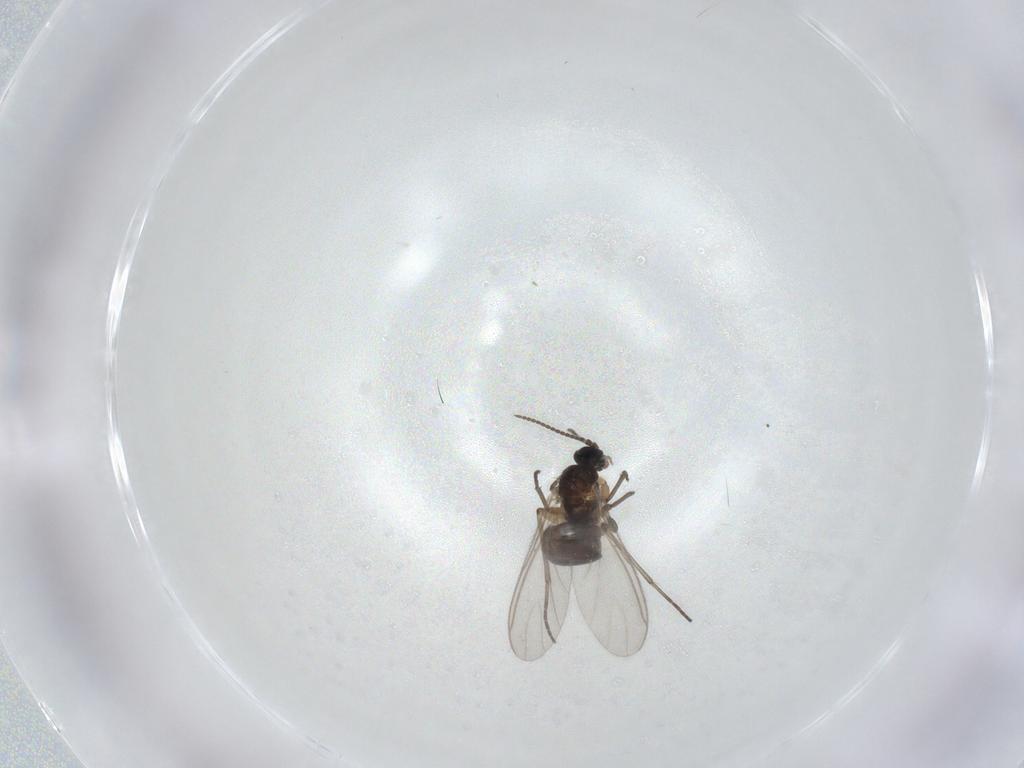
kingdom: Animalia
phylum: Arthropoda
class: Insecta
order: Diptera
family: Mycetophilidae
